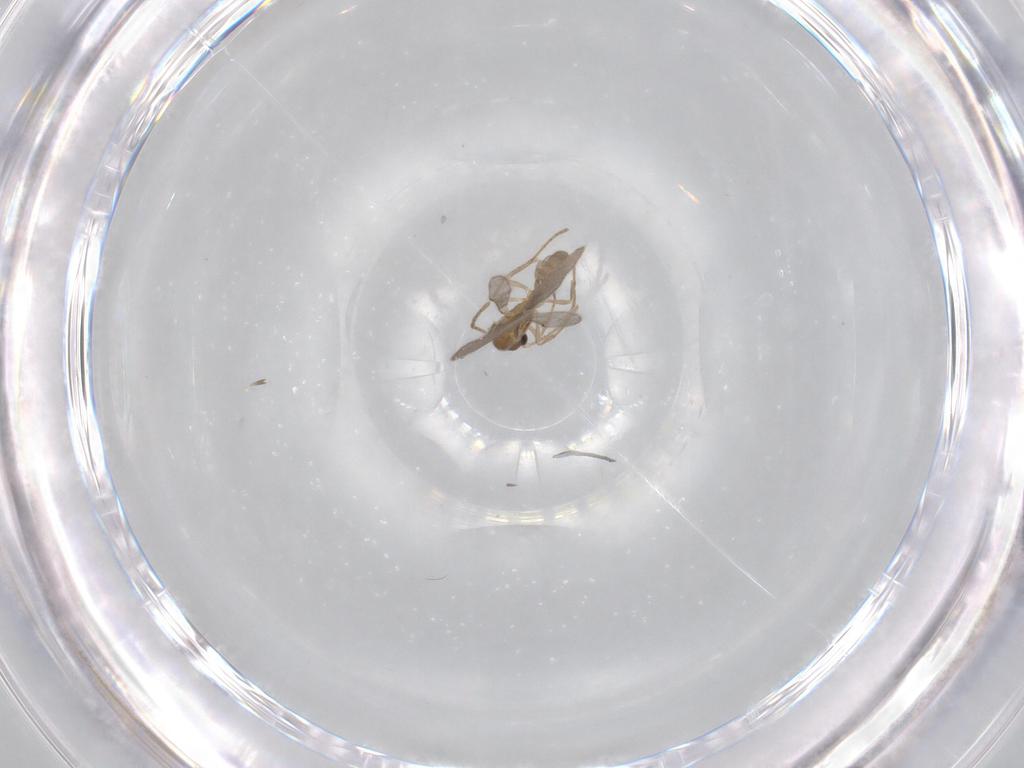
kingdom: Animalia
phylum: Arthropoda
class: Insecta
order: Hymenoptera
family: Formicidae
